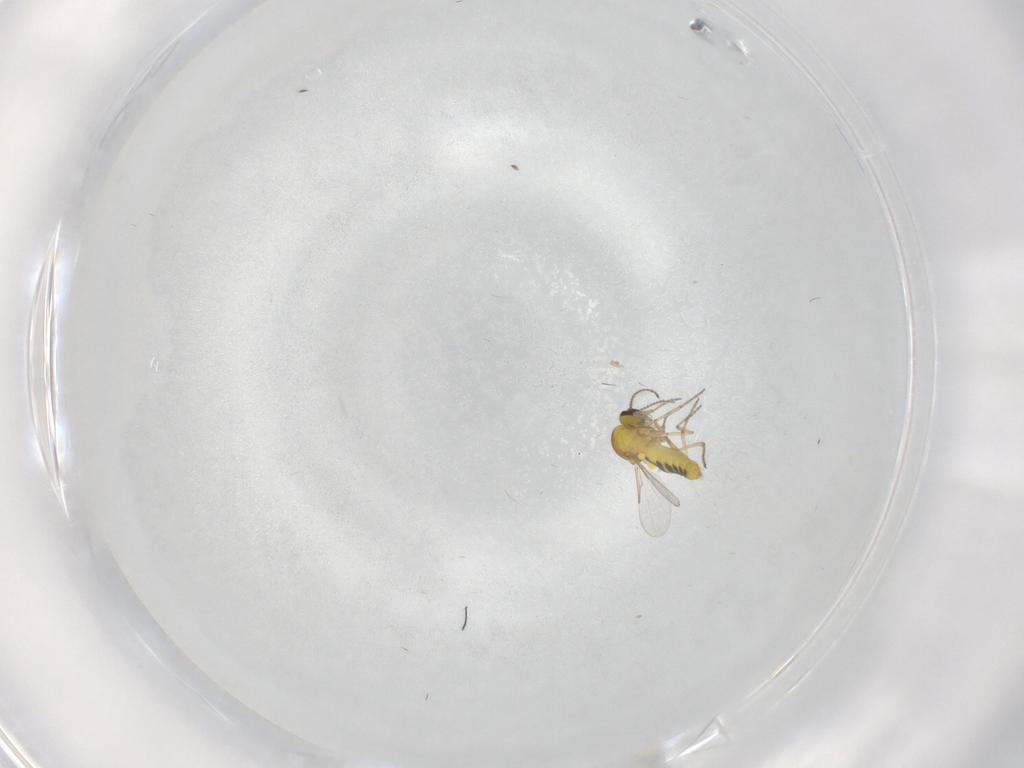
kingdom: Animalia
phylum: Arthropoda
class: Insecta
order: Diptera
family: Ceratopogonidae
